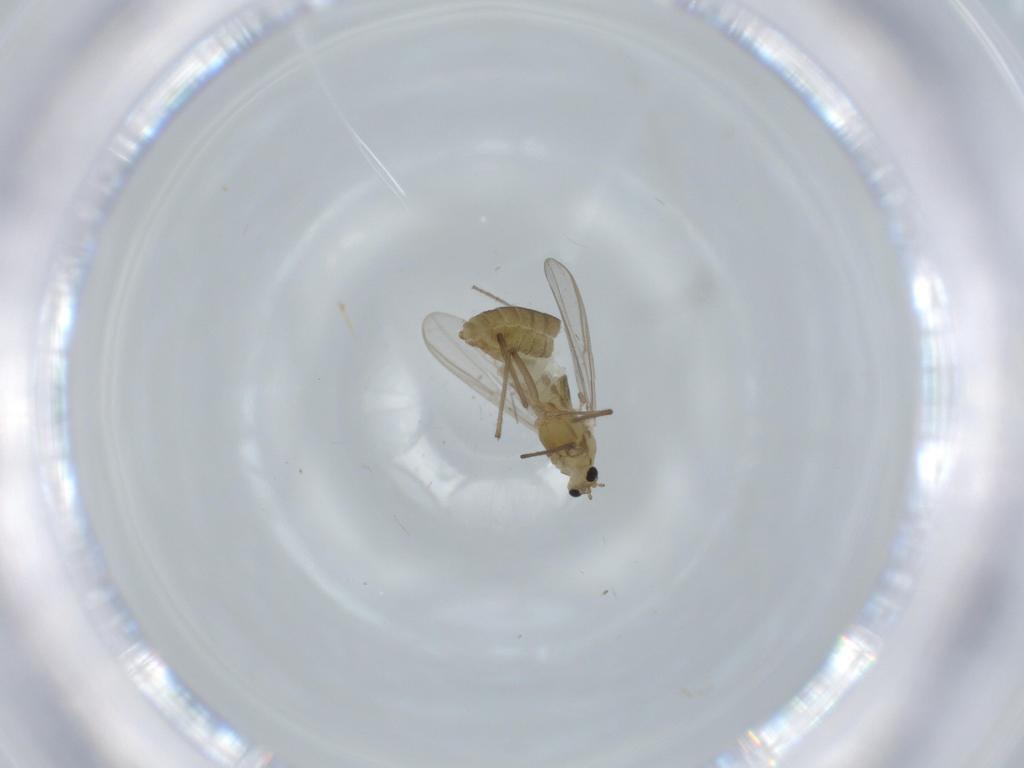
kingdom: Animalia
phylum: Arthropoda
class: Insecta
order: Diptera
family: Chironomidae
